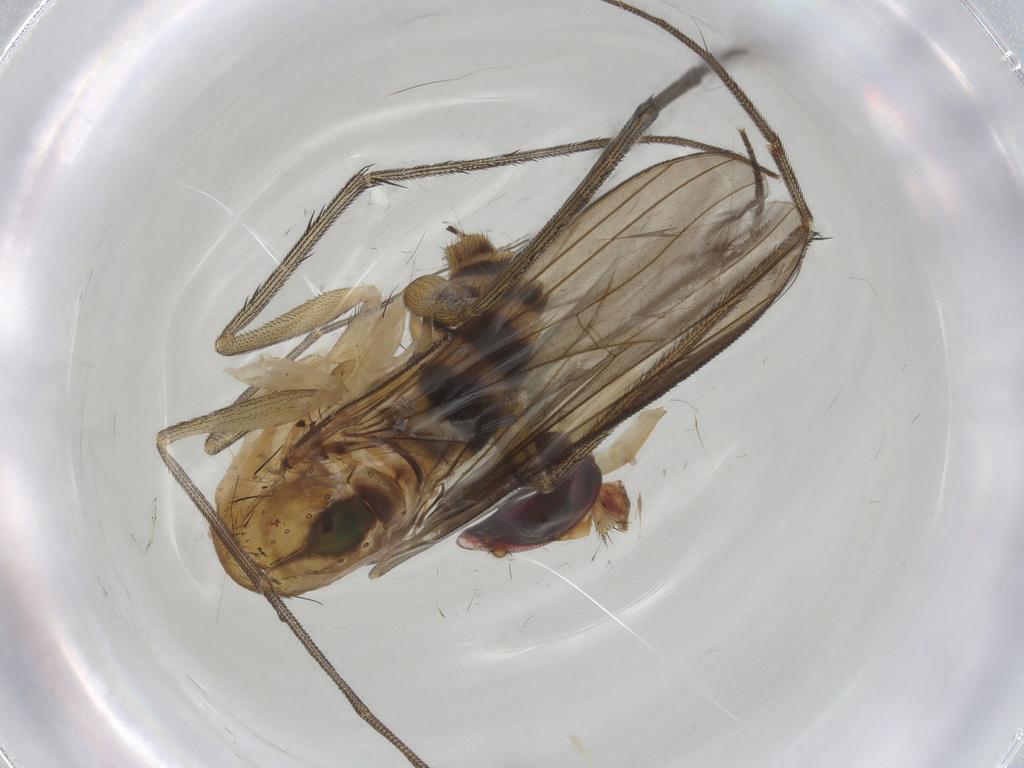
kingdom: Animalia
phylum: Arthropoda
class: Insecta
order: Diptera
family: Dolichopodidae
